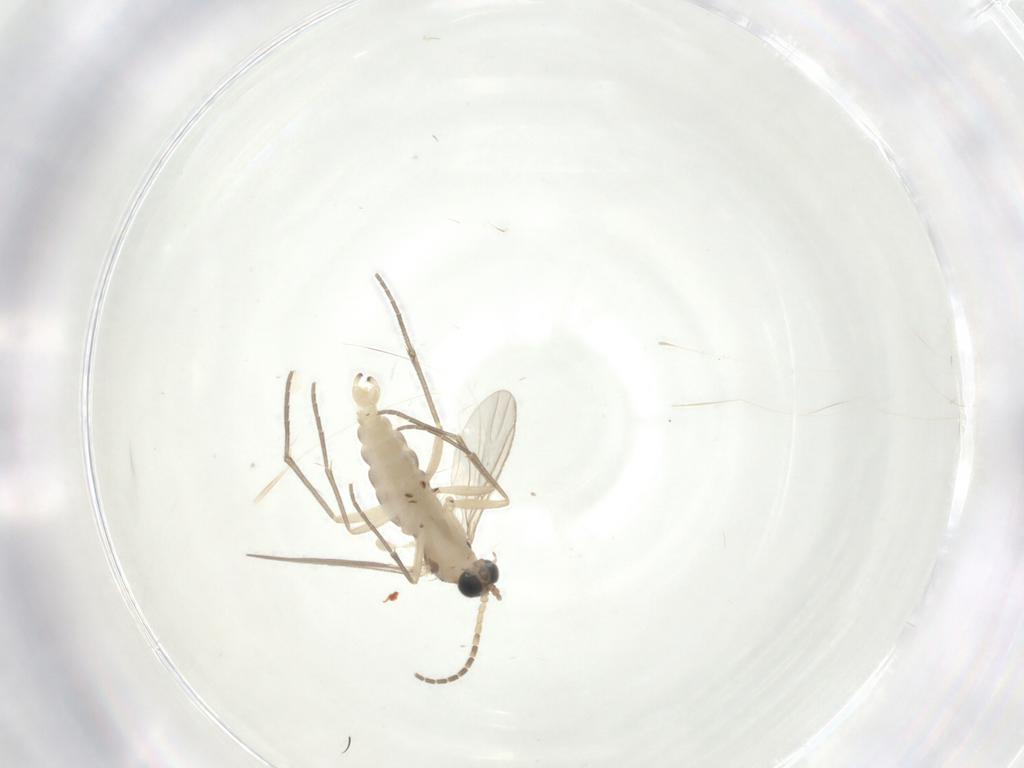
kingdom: Animalia
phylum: Arthropoda
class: Insecta
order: Diptera
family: Sciaridae
